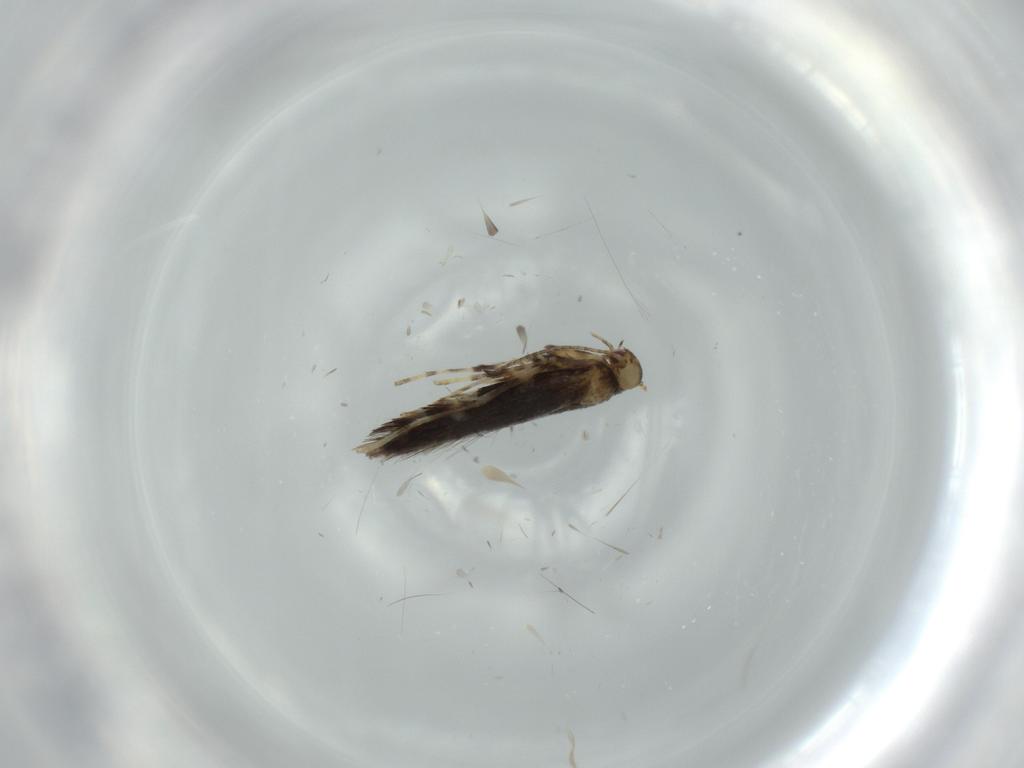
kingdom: Animalia
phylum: Arthropoda
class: Insecta
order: Lepidoptera
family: Gracillariidae
